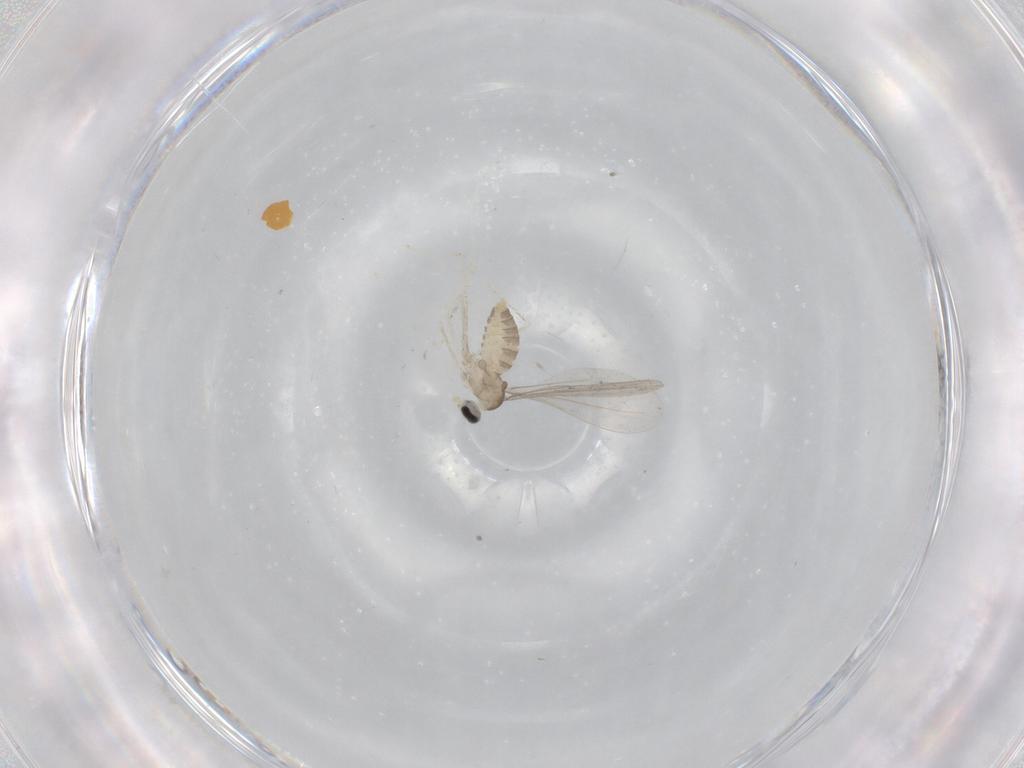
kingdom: Animalia
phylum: Arthropoda
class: Insecta
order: Diptera
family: Cecidomyiidae
